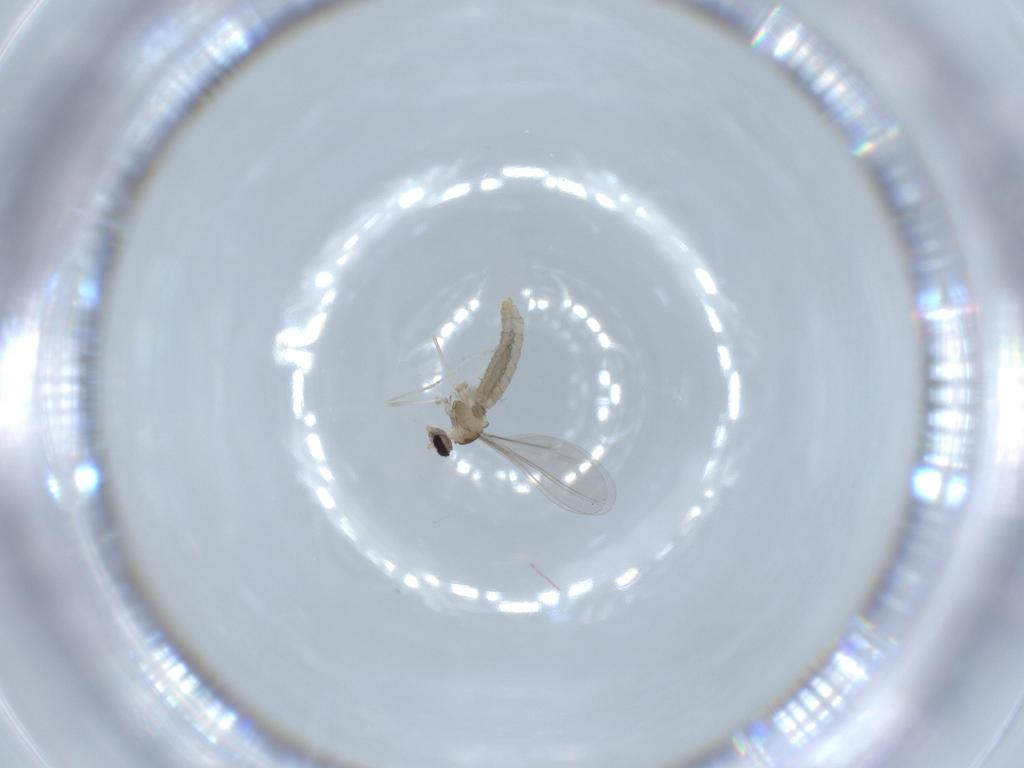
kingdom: Animalia
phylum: Arthropoda
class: Insecta
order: Diptera
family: Cecidomyiidae
